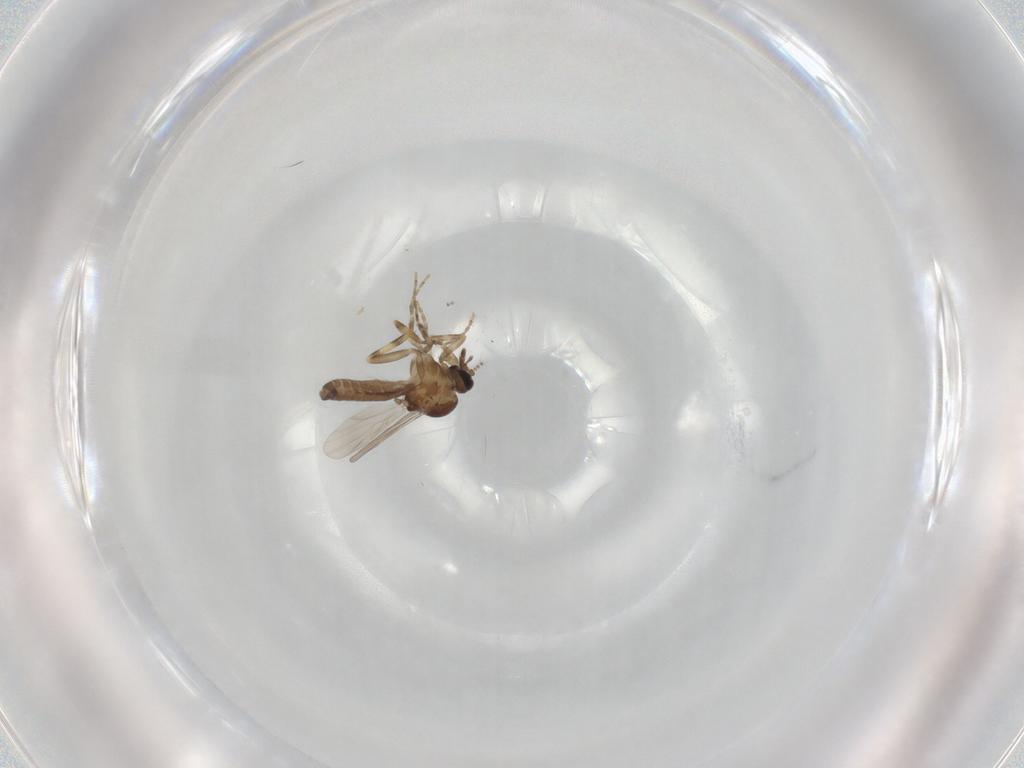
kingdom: Animalia
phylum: Arthropoda
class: Insecta
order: Diptera
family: Ceratopogonidae
